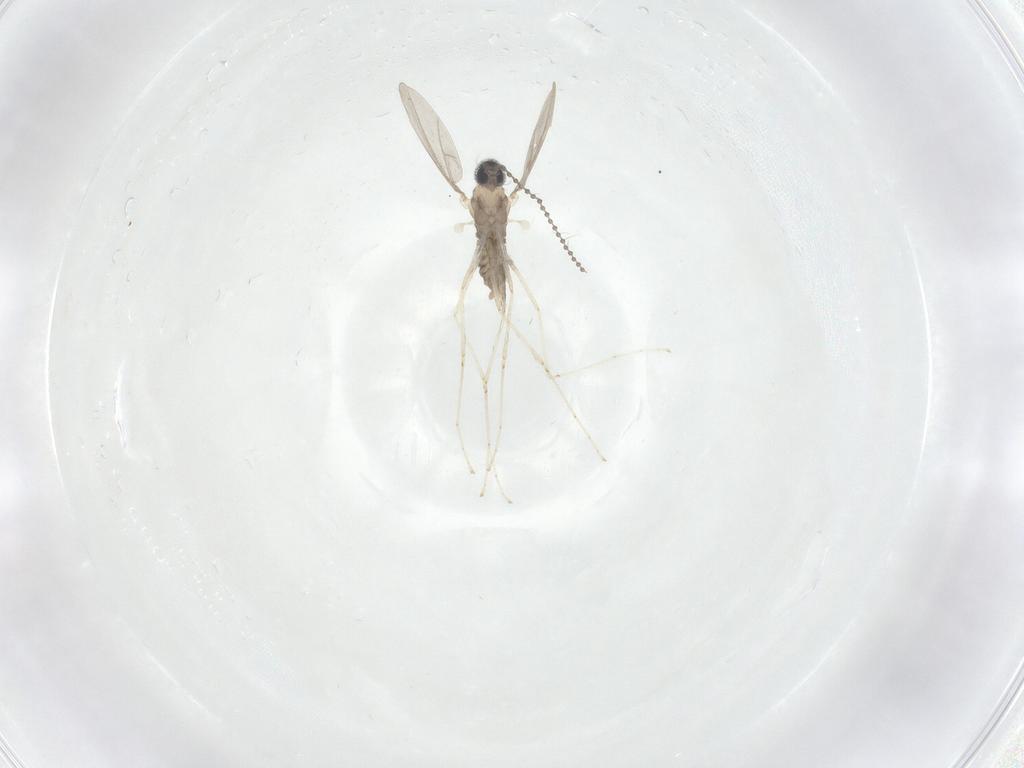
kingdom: Animalia
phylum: Arthropoda
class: Insecta
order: Diptera
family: Cecidomyiidae
